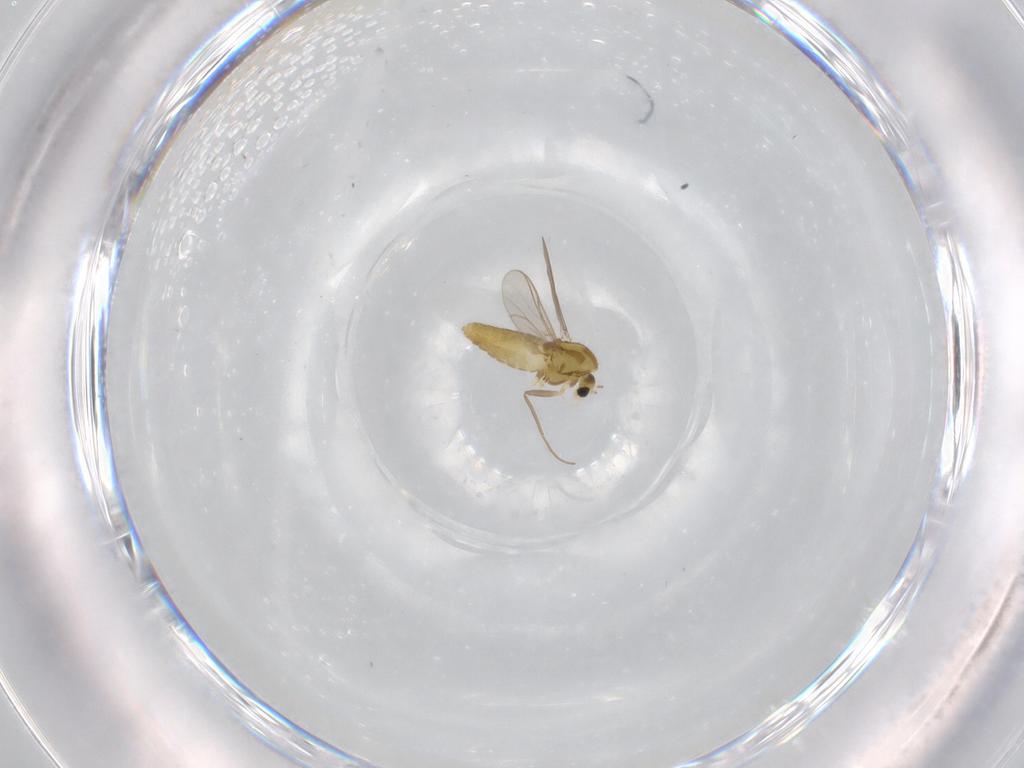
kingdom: Animalia
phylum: Arthropoda
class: Insecta
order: Diptera
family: Chironomidae
